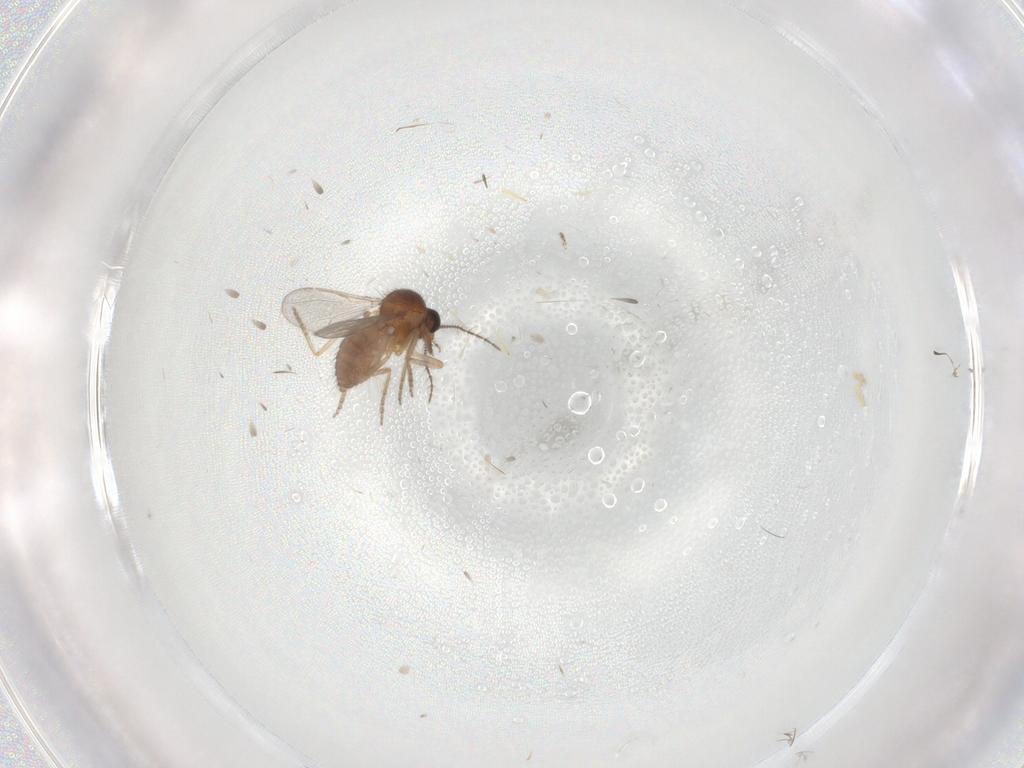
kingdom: Animalia
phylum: Arthropoda
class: Insecta
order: Diptera
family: Ceratopogonidae
